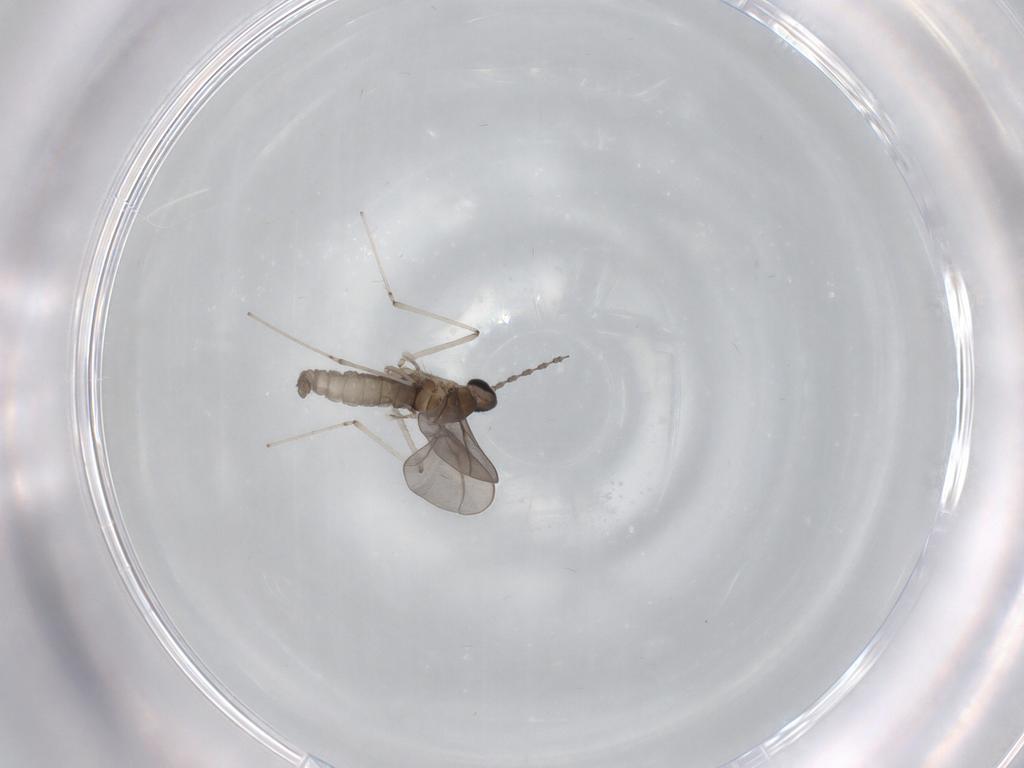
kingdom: Animalia
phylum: Arthropoda
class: Insecta
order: Diptera
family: Cecidomyiidae
